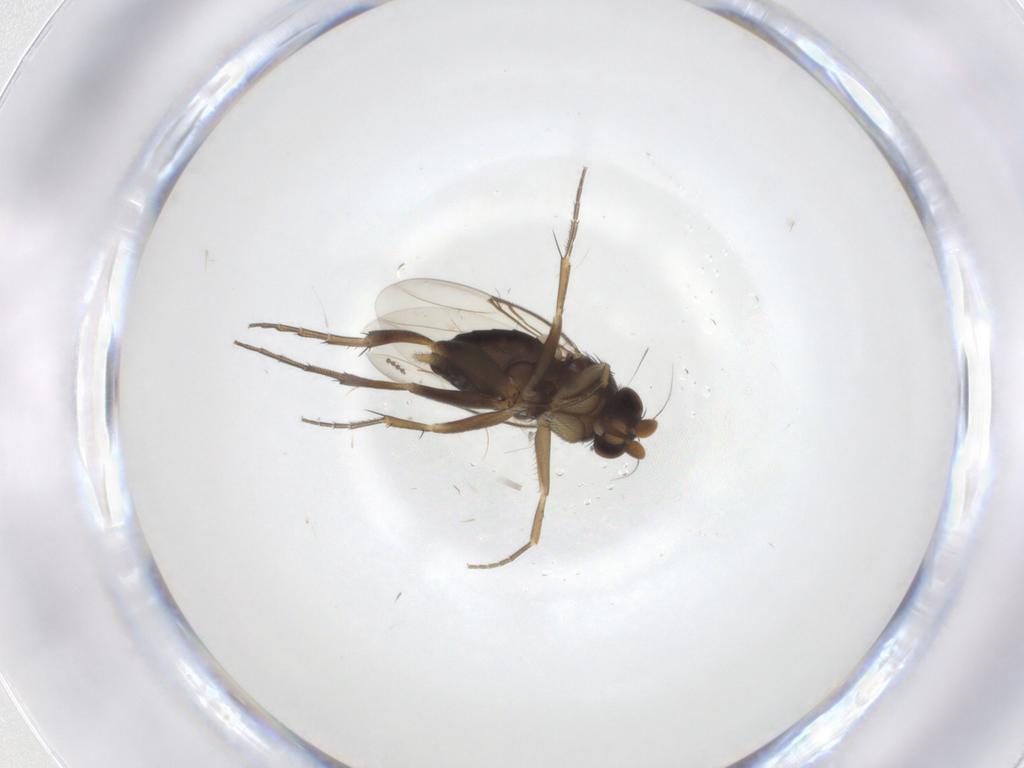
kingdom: Animalia
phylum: Arthropoda
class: Insecta
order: Diptera
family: Phoridae
